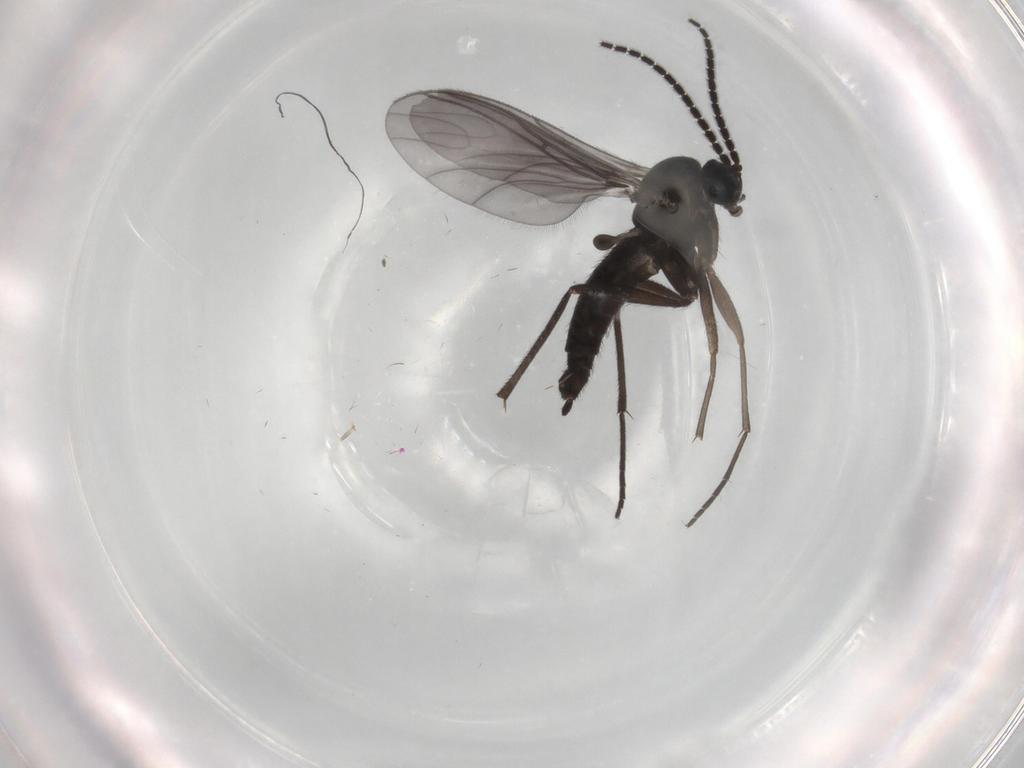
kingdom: Animalia
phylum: Arthropoda
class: Insecta
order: Diptera
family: Sciaridae
